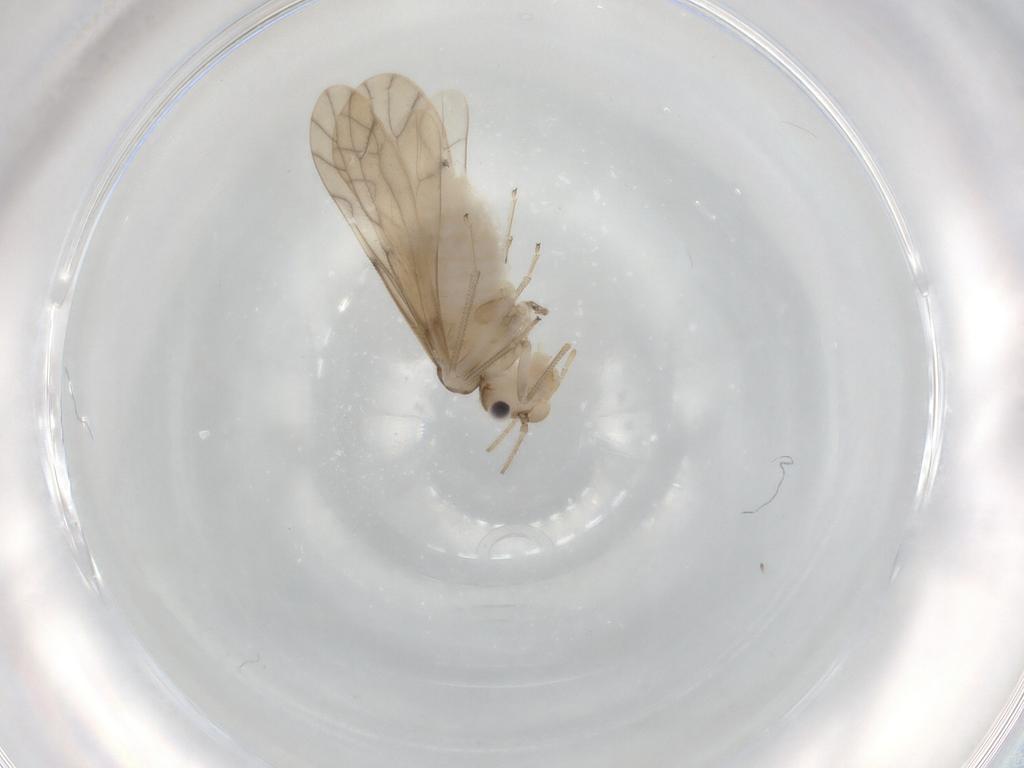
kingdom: Animalia
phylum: Arthropoda
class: Insecta
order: Psocodea
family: Caeciliusidae
